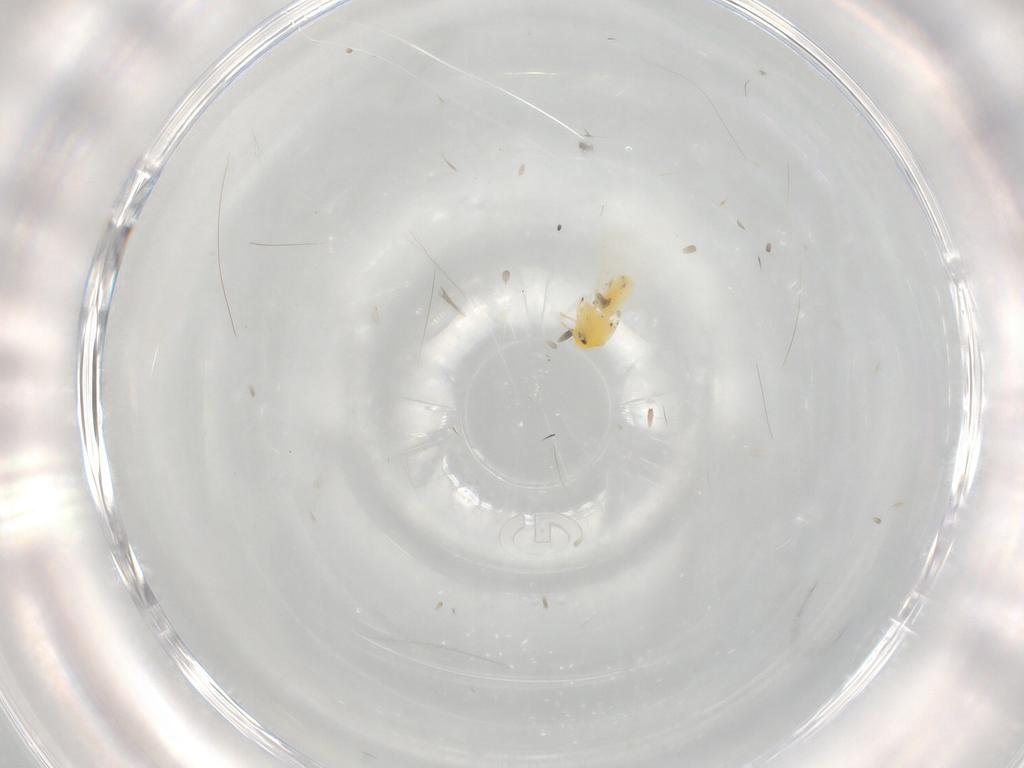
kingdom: Animalia
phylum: Arthropoda
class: Insecta
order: Hemiptera
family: Aleyrodidae
